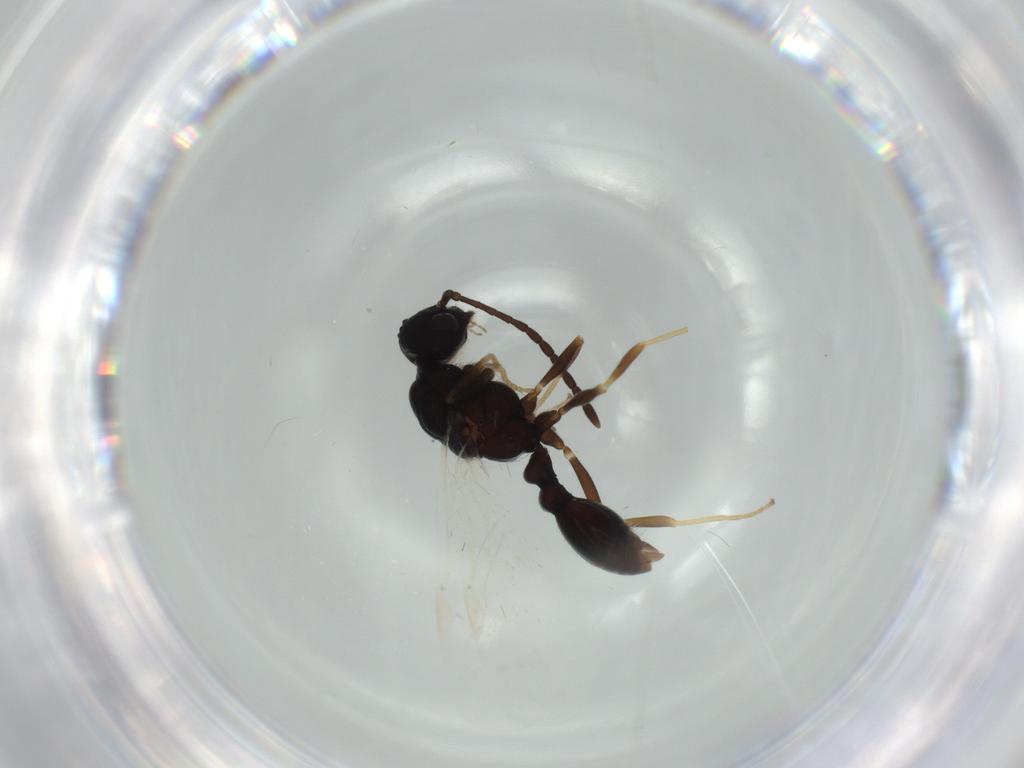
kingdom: Animalia
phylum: Arthropoda
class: Insecta
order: Hymenoptera
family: Formicidae
